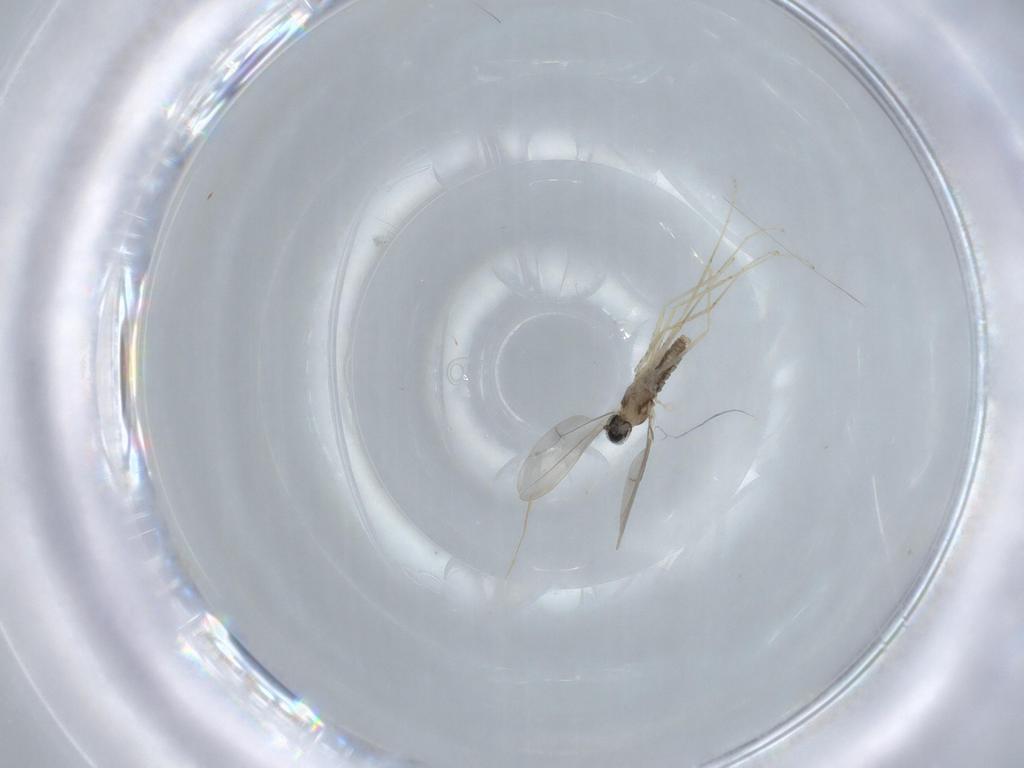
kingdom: Animalia
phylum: Arthropoda
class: Insecta
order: Diptera
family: Cecidomyiidae
